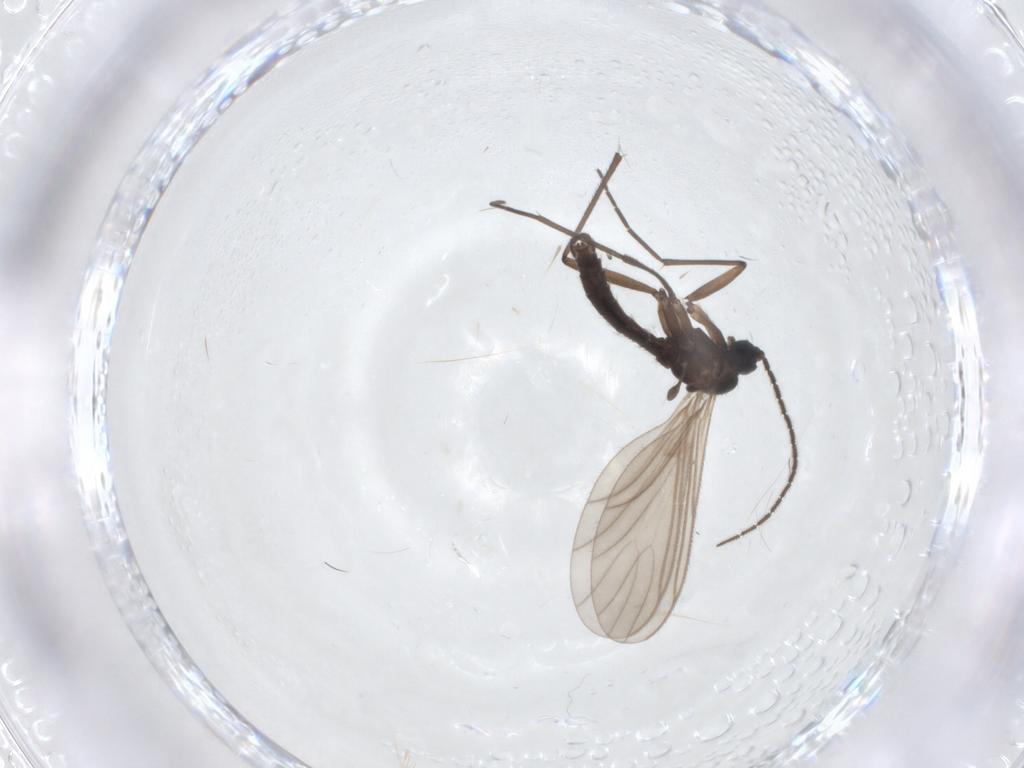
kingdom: Animalia
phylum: Arthropoda
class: Insecta
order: Diptera
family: Sciaridae
